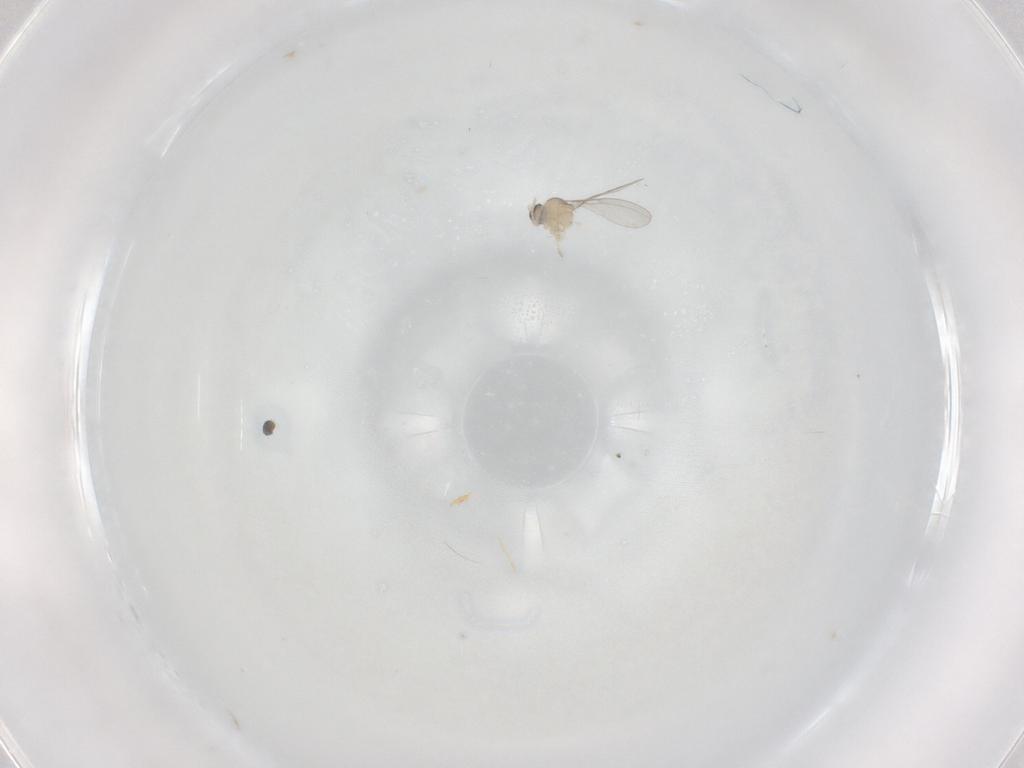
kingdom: Animalia
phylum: Arthropoda
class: Insecta
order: Diptera
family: Cecidomyiidae
